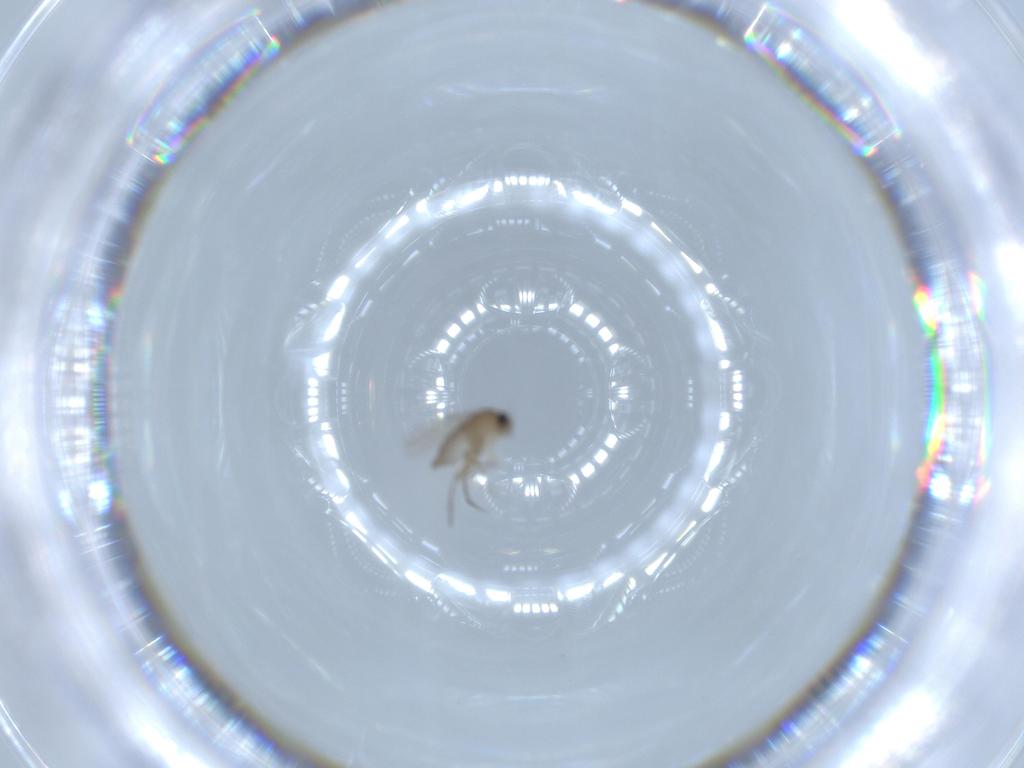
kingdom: Animalia
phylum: Arthropoda
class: Insecta
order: Diptera
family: Phoridae
